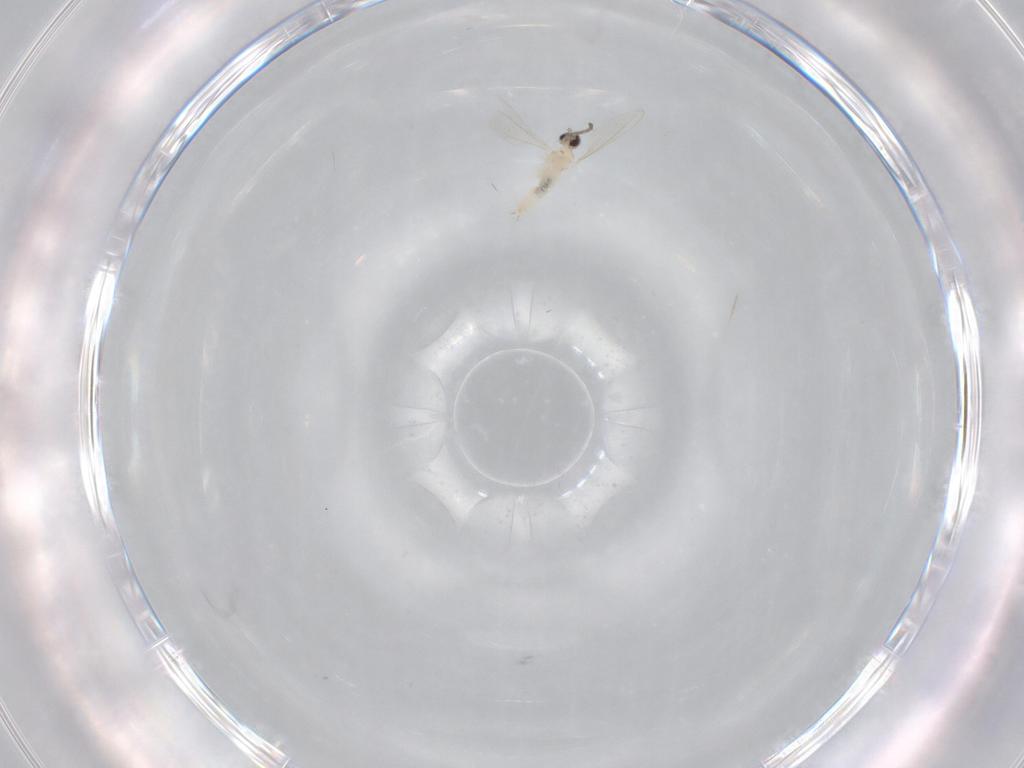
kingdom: Animalia
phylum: Arthropoda
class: Insecta
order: Diptera
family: Cecidomyiidae
